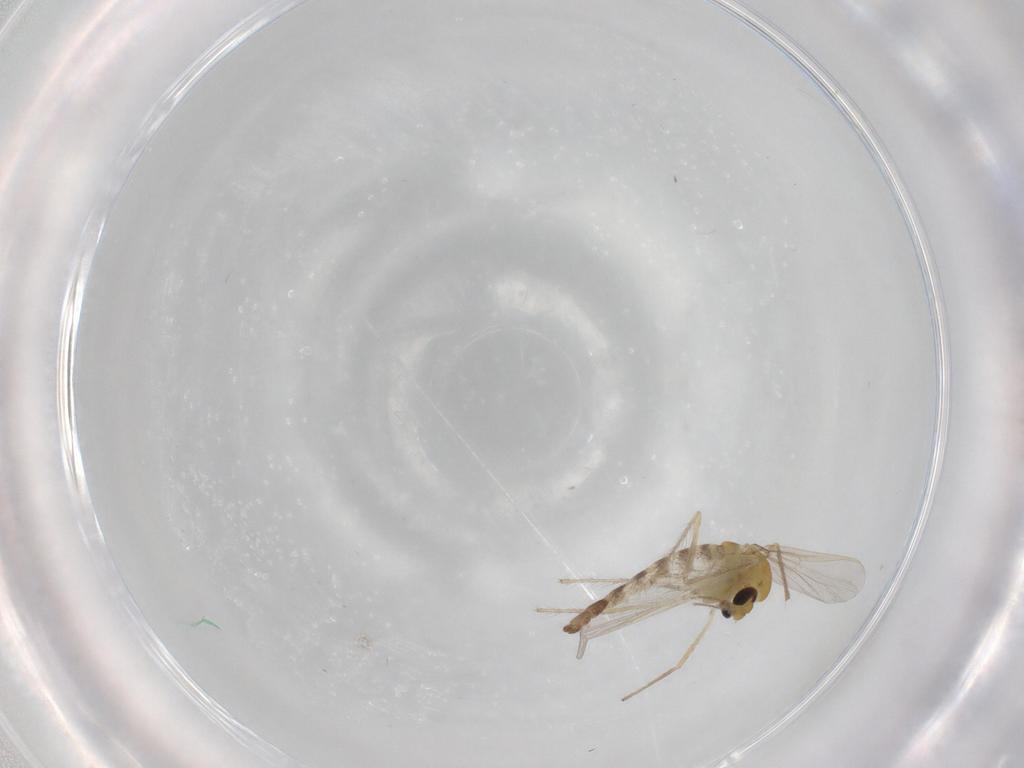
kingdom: Animalia
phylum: Arthropoda
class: Insecta
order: Diptera
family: Chironomidae
